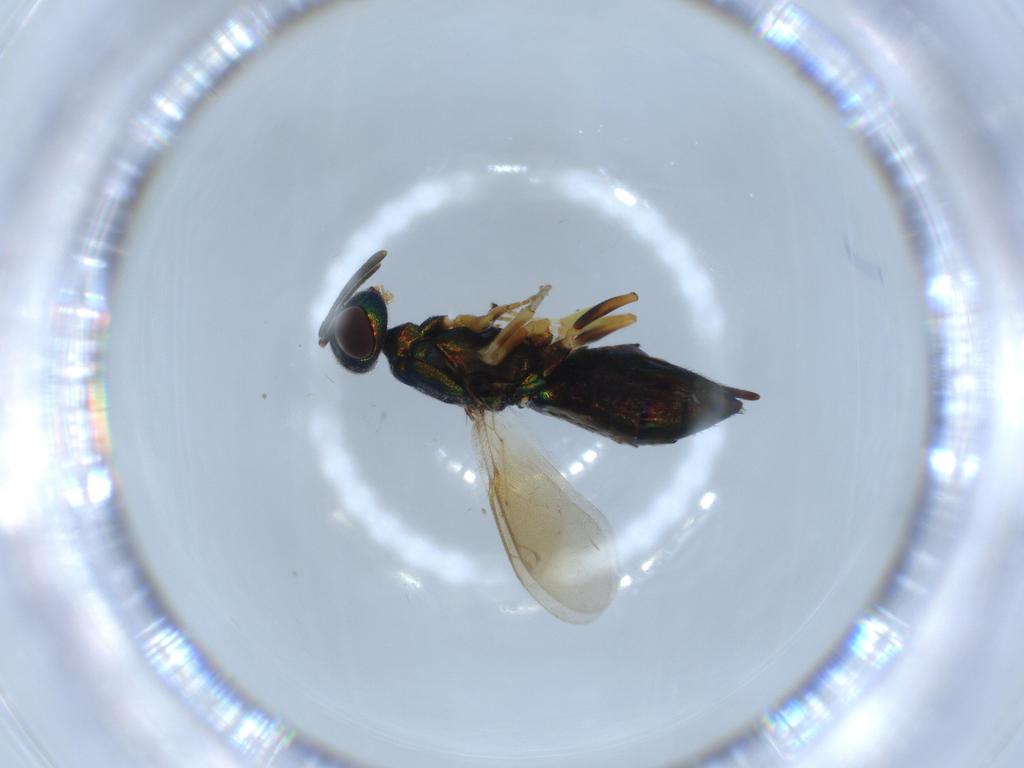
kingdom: Animalia
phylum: Arthropoda
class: Insecta
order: Hymenoptera
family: Eupelmidae
